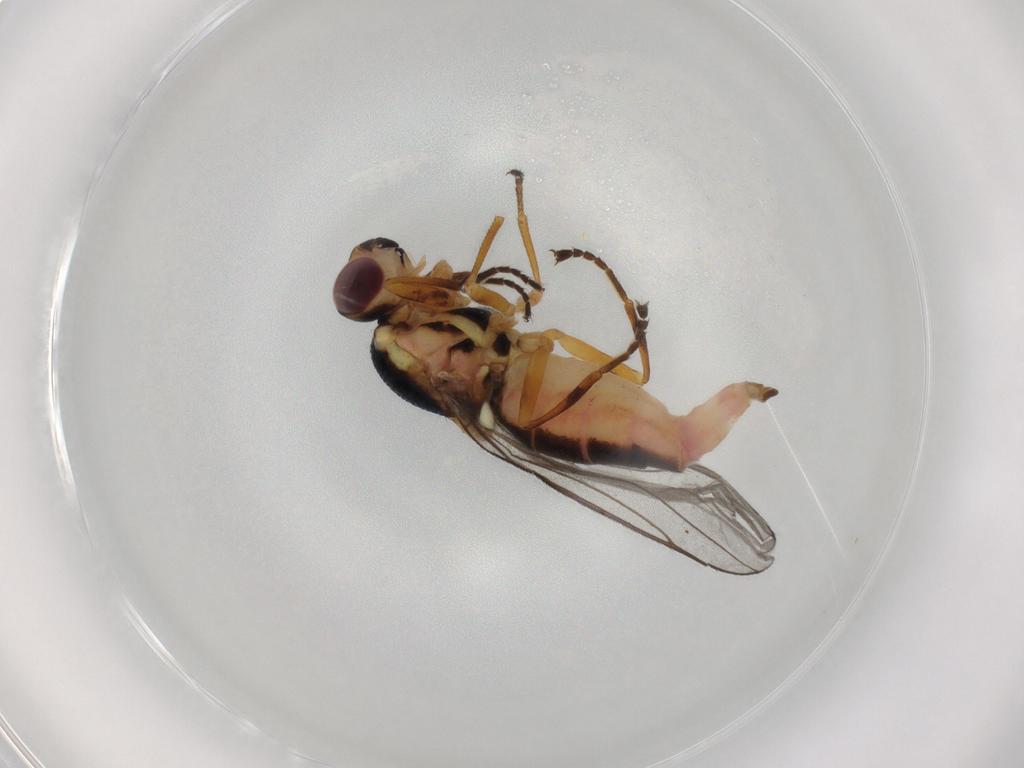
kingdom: Animalia
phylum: Arthropoda
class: Insecta
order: Diptera
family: Chloropidae
